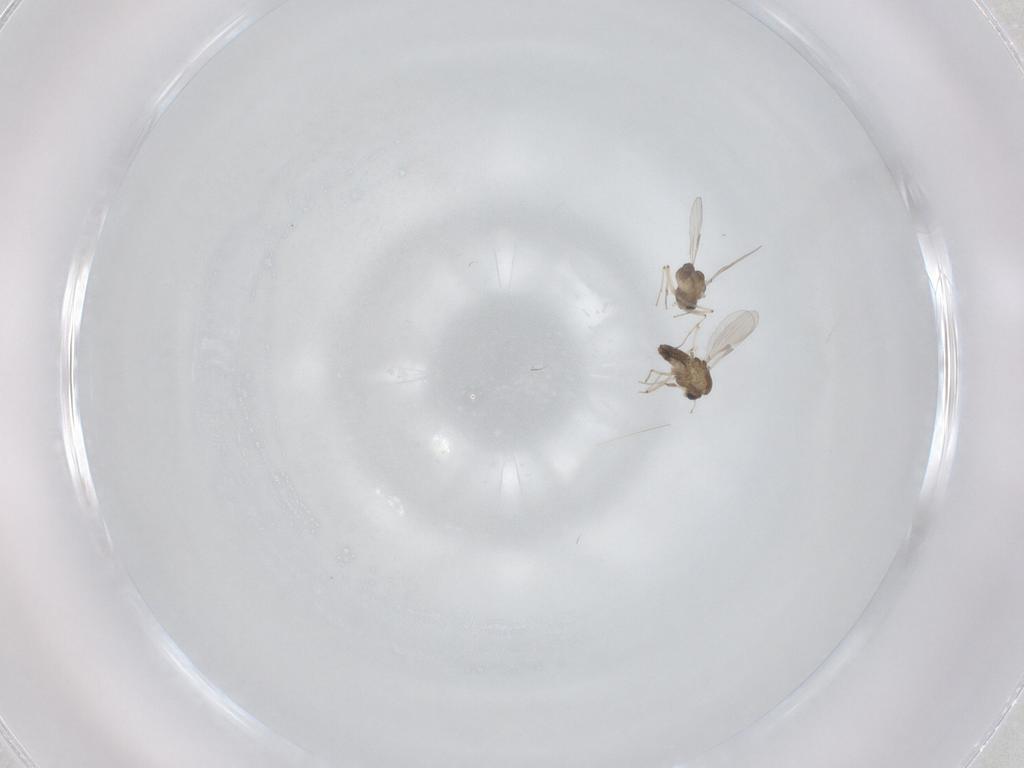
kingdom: Animalia
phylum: Arthropoda
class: Insecta
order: Diptera
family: Chironomidae
